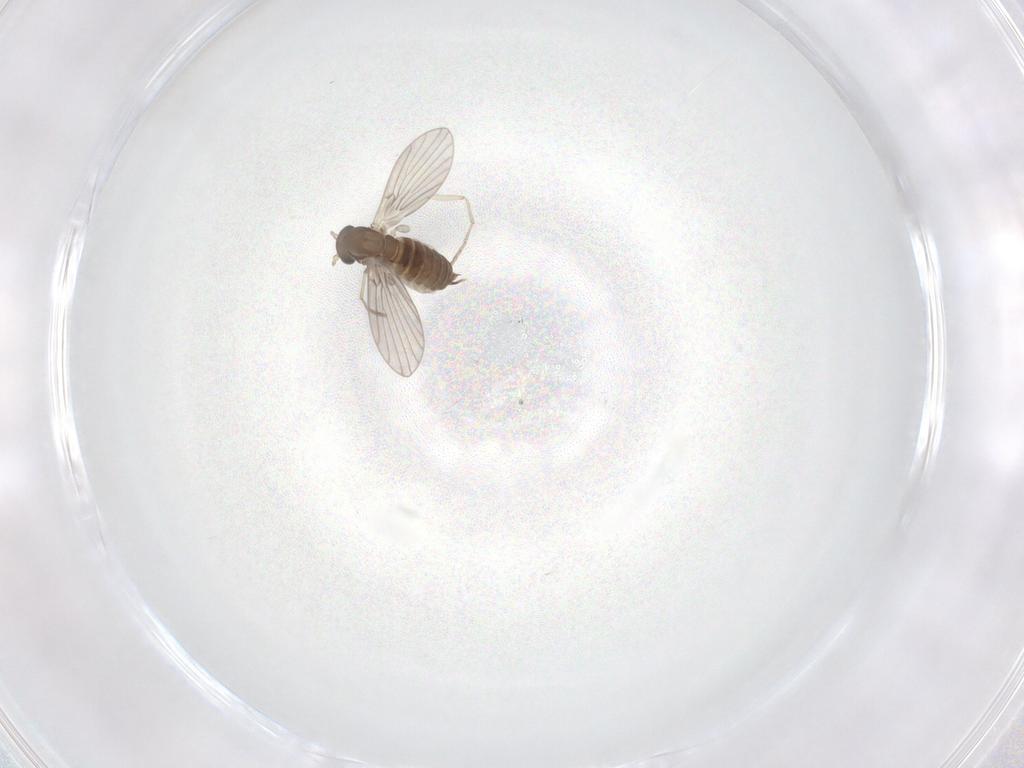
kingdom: Animalia
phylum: Arthropoda
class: Insecta
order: Diptera
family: Psychodidae
